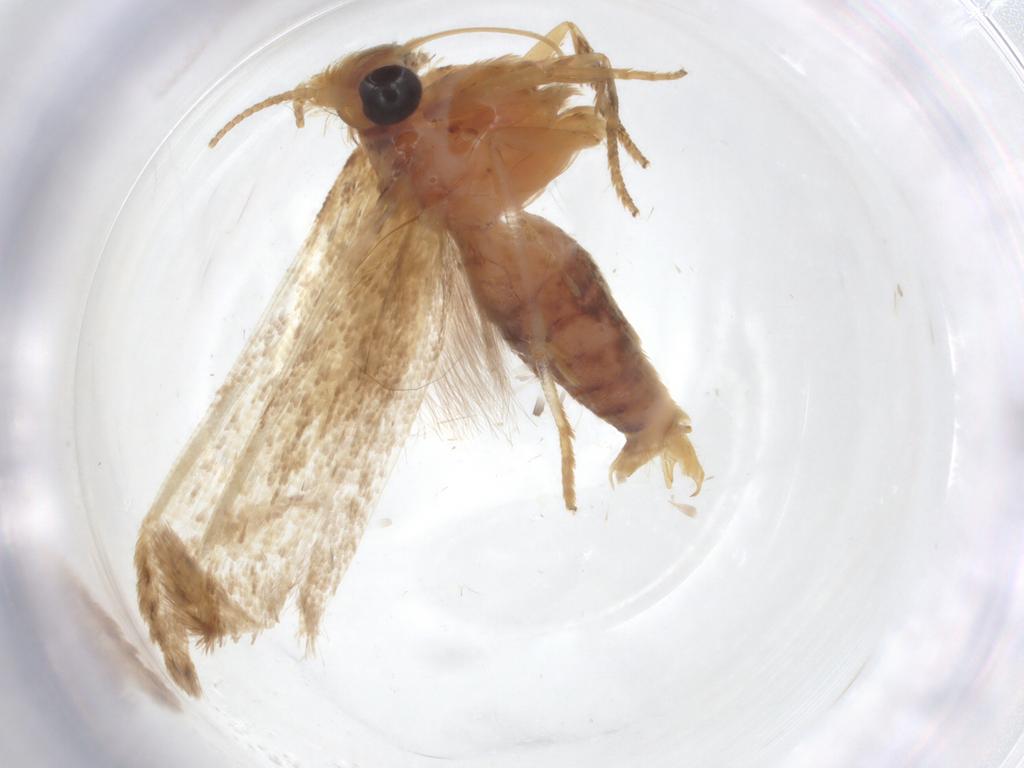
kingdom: Animalia
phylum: Arthropoda
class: Insecta
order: Lepidoptera
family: Blastobasidae
